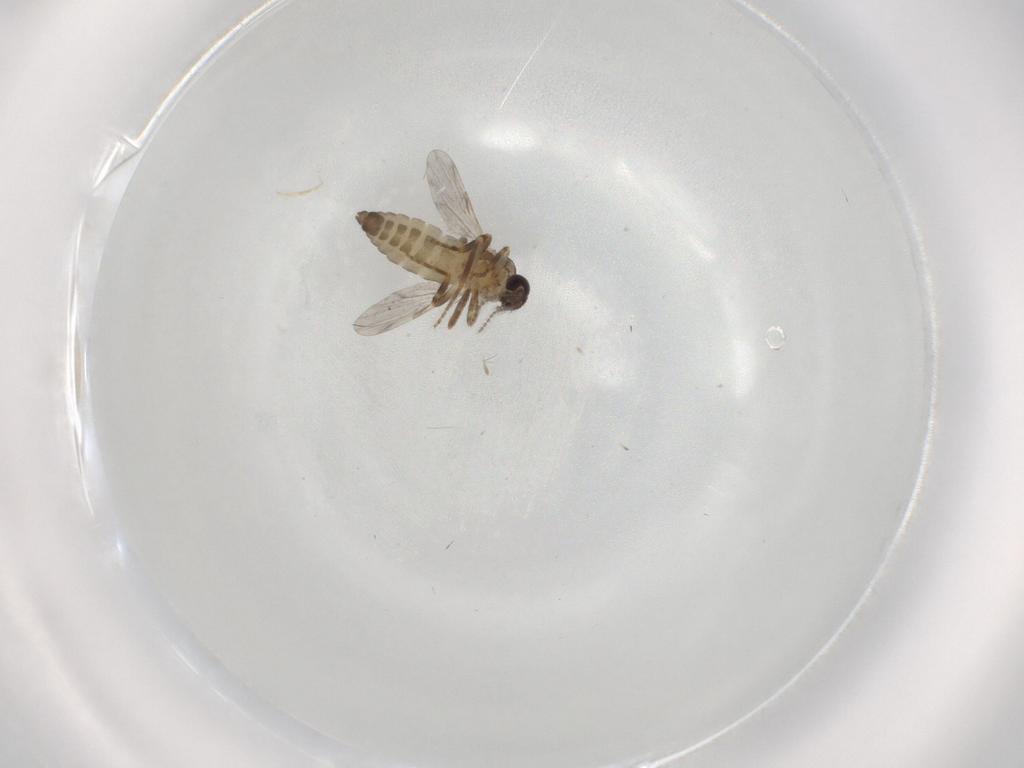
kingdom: Animalia
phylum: Arthropoda
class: Insecta
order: Diptera
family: Ceratopogonidae
